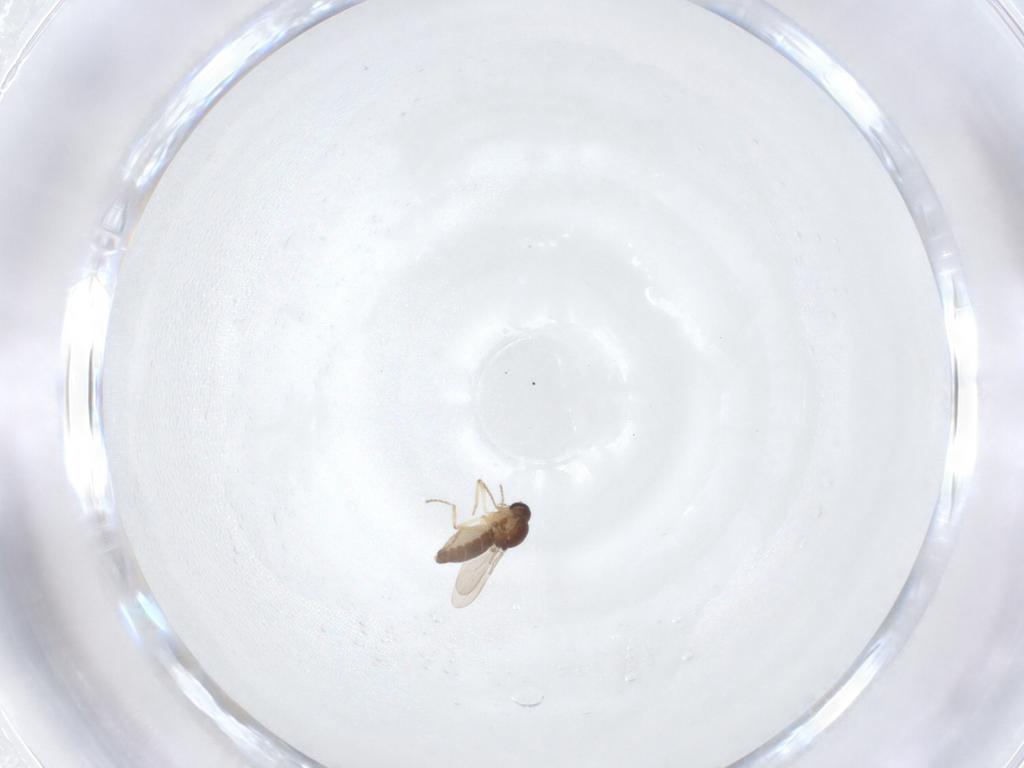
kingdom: Animalia
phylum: Arthropoda
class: Insecta
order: Diptera
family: Ceratopogonidae
